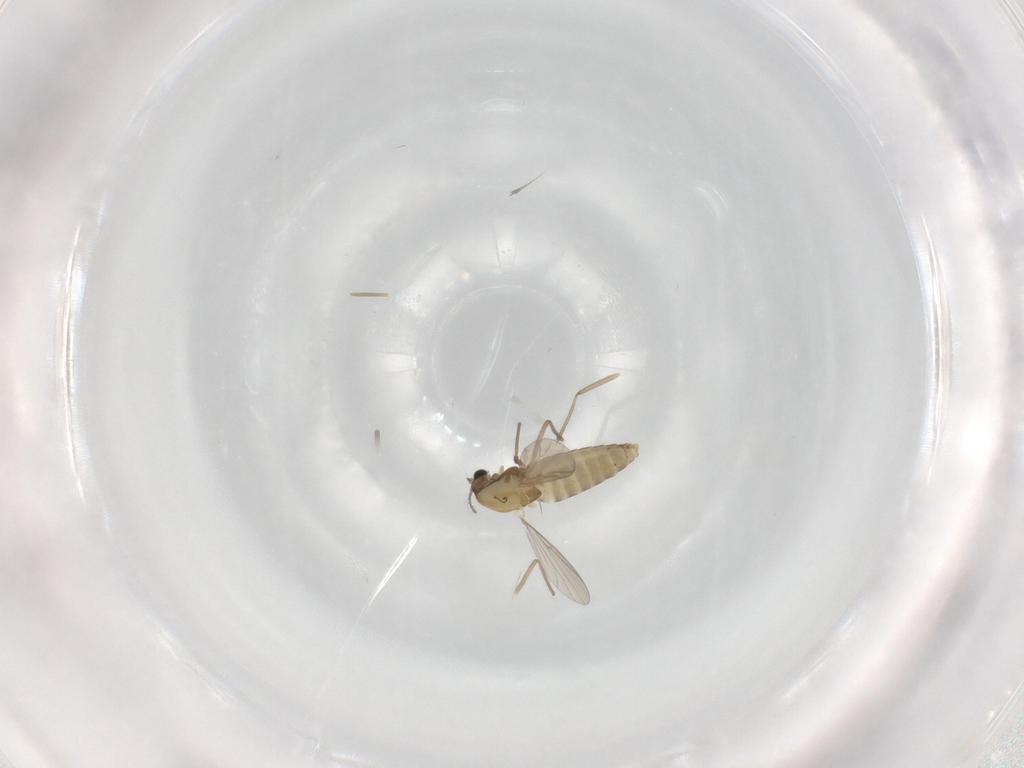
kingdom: Animalia
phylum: Arthropoda
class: Insecta
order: Diptera
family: Chironomidae
